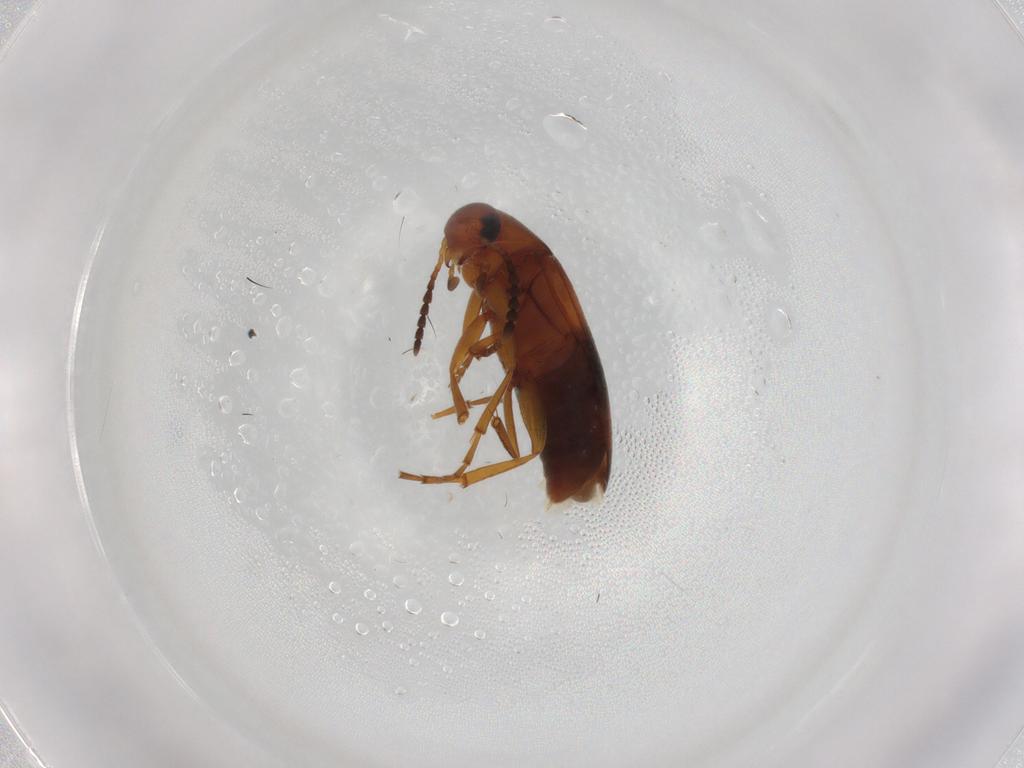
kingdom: Animalia
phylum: Arthropoda
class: Insecta
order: Coleoptera
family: Scraptiidae
